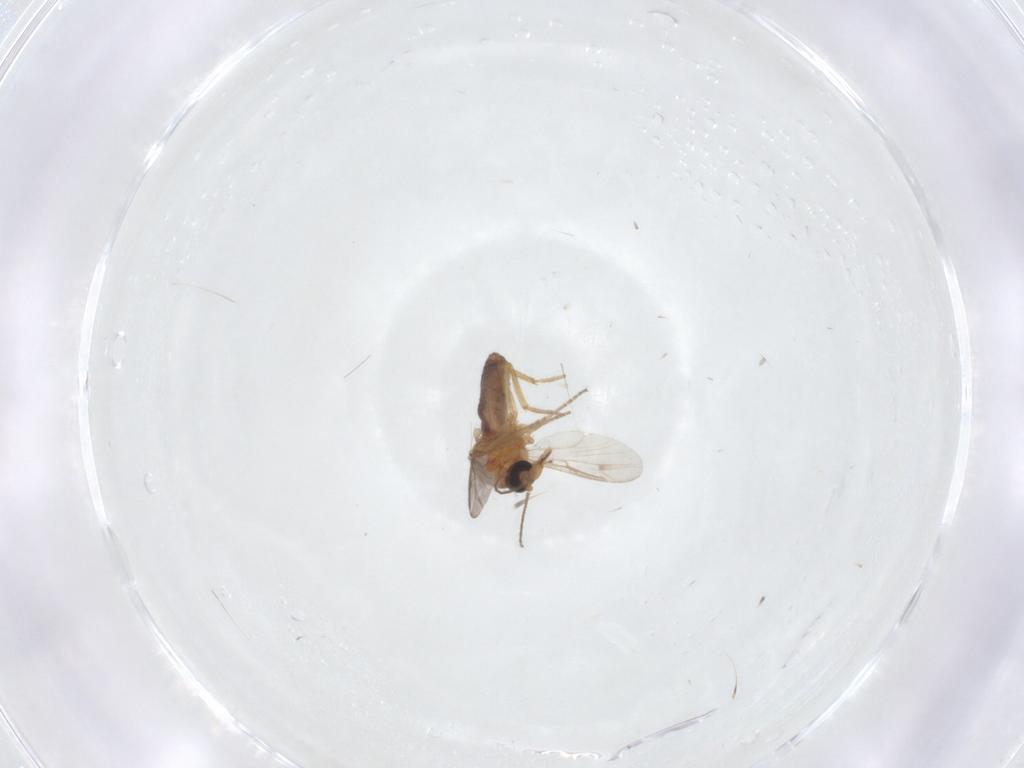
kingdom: Animalia
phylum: Arthropoda
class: Insecta
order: Diptera
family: Ceratopogonidae
